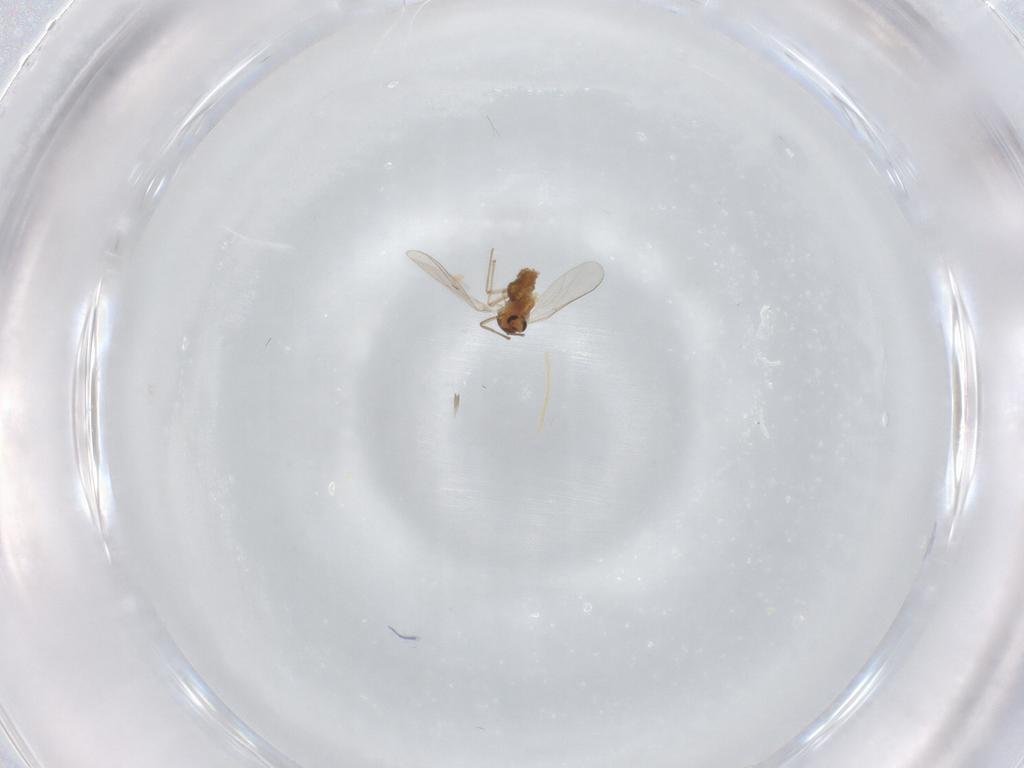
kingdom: Animalia
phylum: Arthropoda
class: Insecta
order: Diptera
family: Chironomidae
